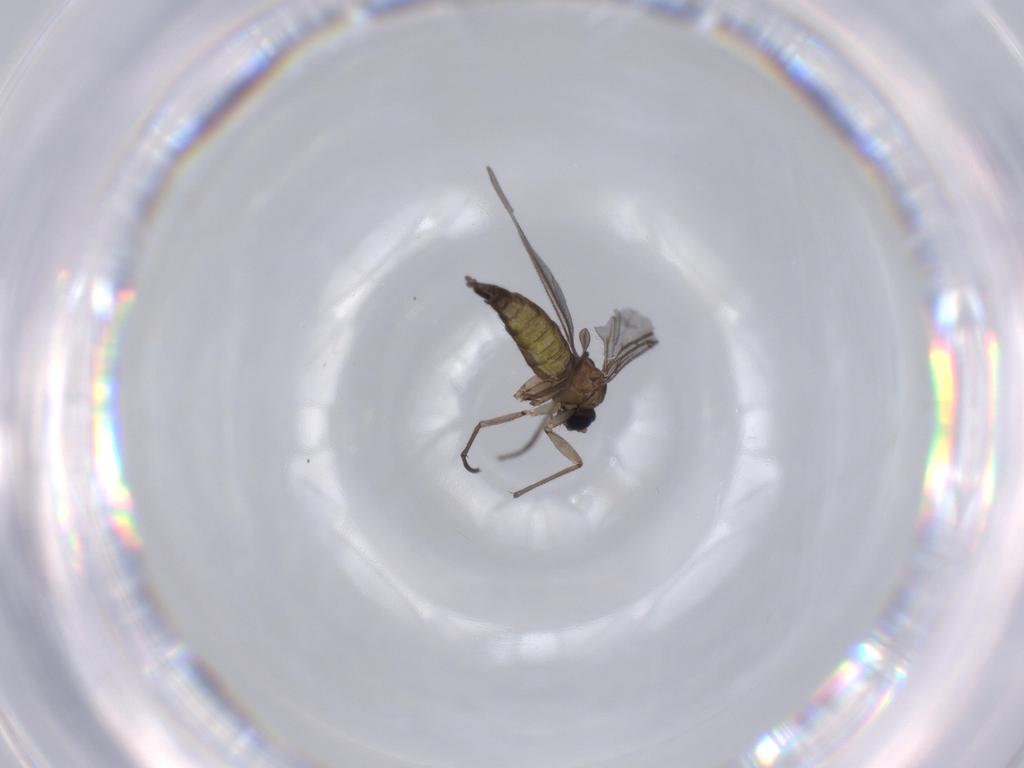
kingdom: Animalia
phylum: Arthropoda
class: Insecta
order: Diptera
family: Sciaridae
